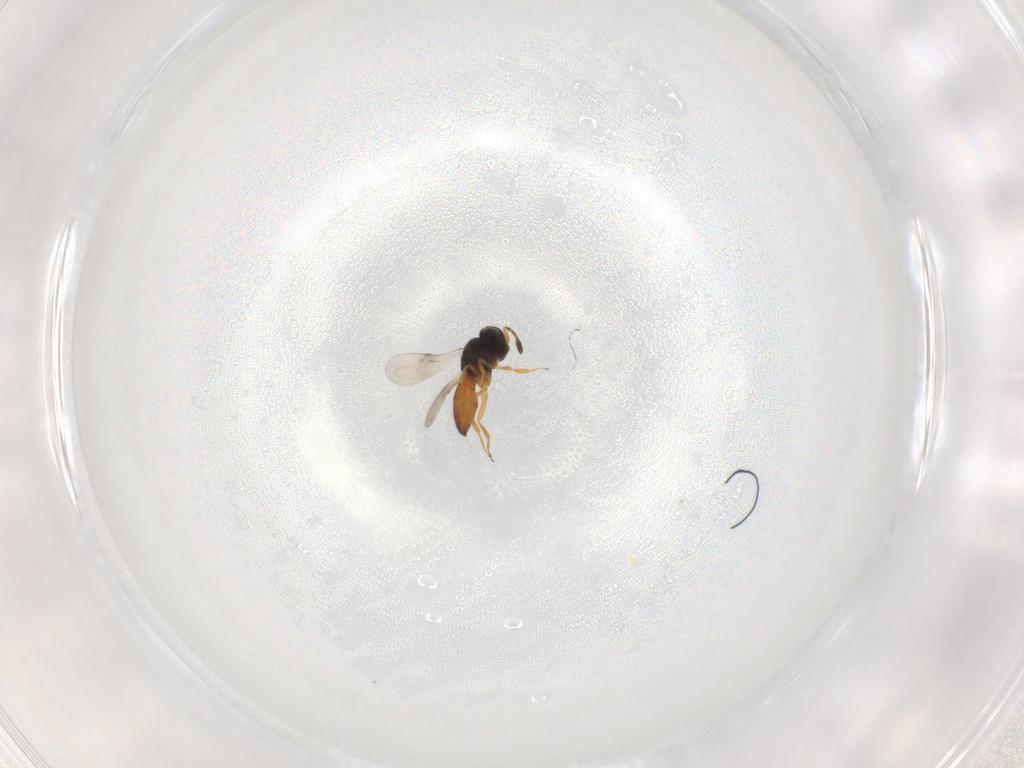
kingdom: Animalia
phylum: Arthropoda
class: Insecta
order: Hymenoptera
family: Scelionidae
